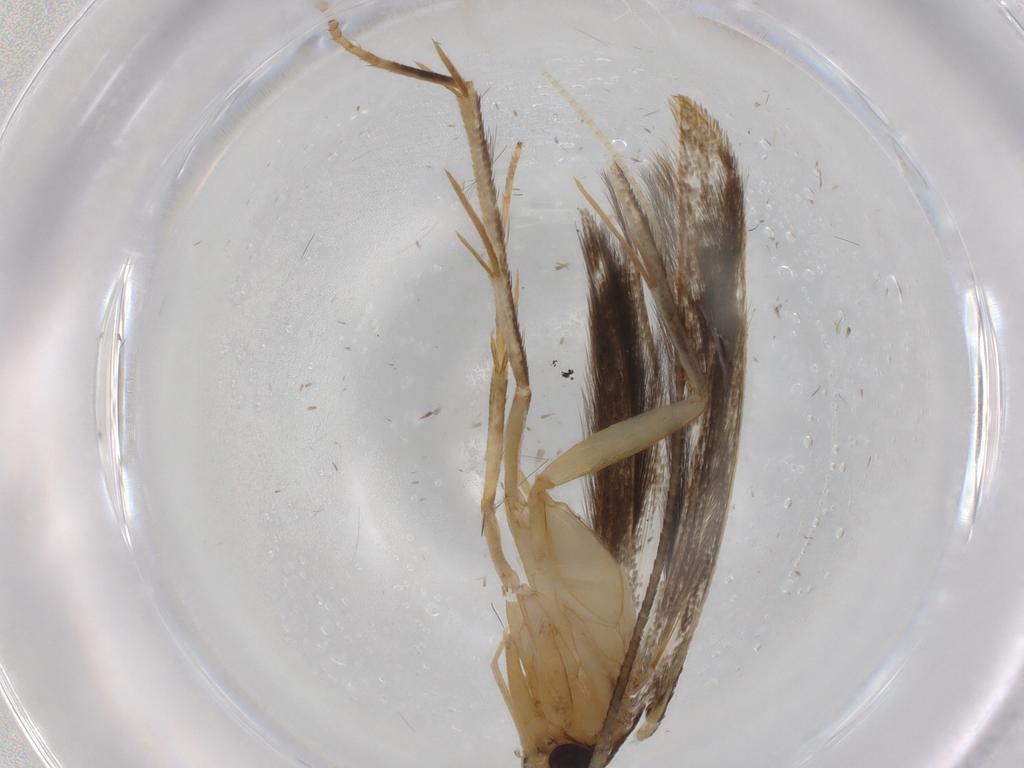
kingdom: Animalia
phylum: Arthropoda
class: Insecta
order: Lepidoptera
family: Pterolonchidae
